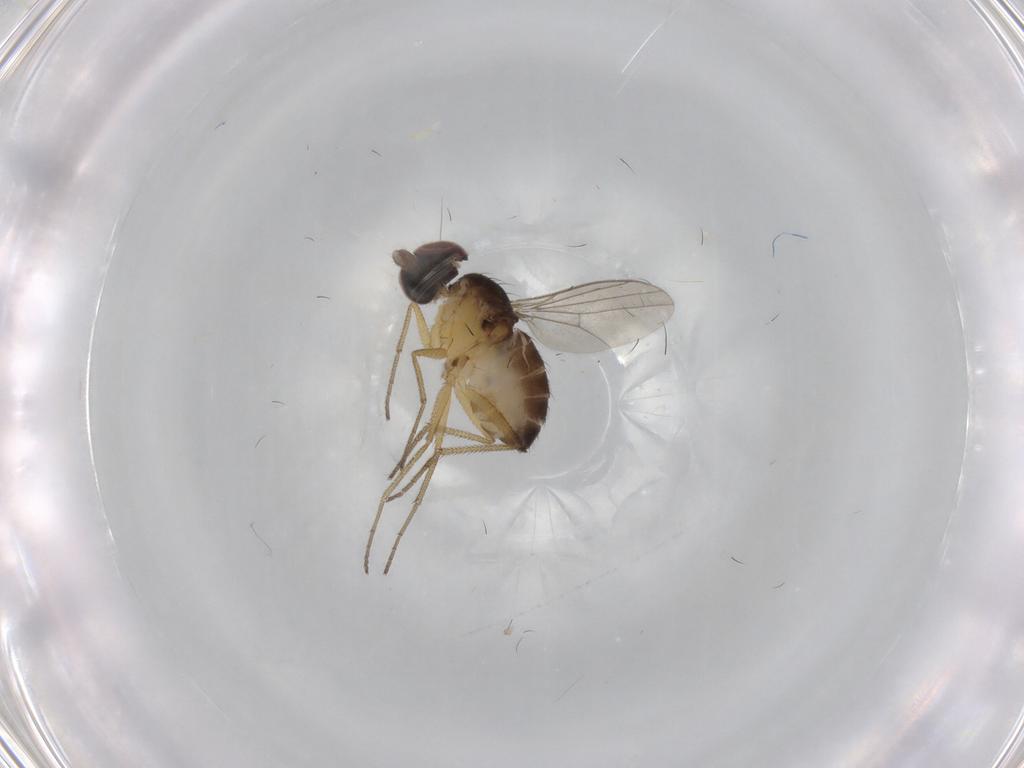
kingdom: Animalia
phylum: Arthropoda
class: Insecta
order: Diptera
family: Dolichopodidae
